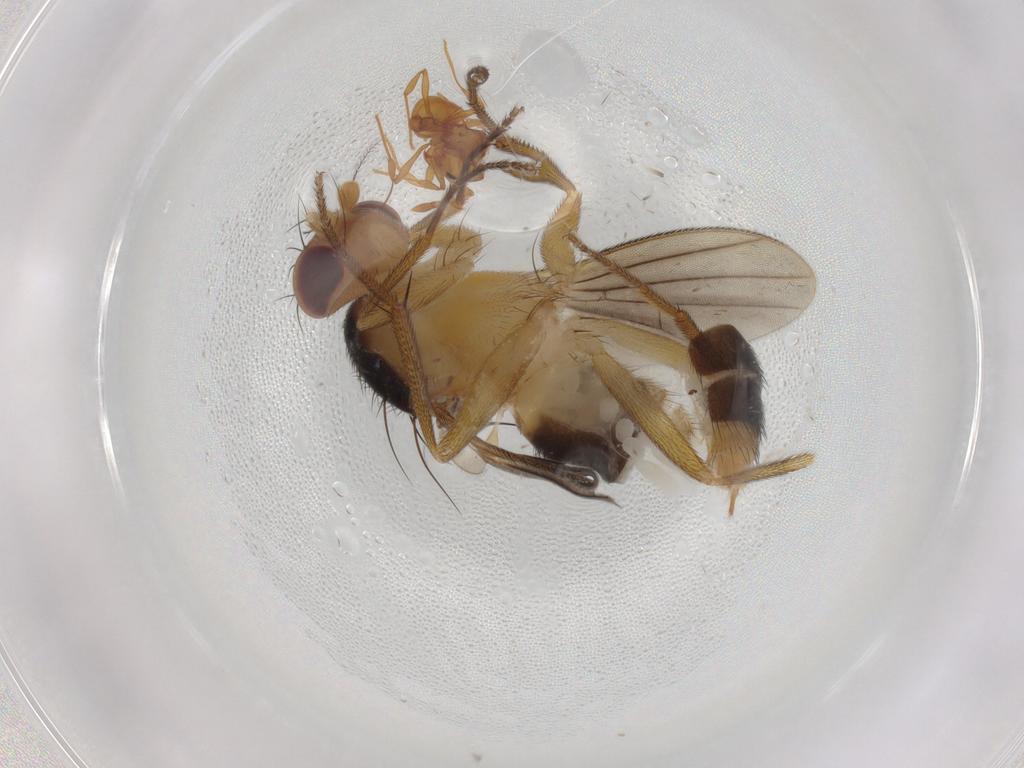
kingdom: Animalia
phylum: Arthropoda
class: Insecta
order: Diptera
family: Clusiidae
